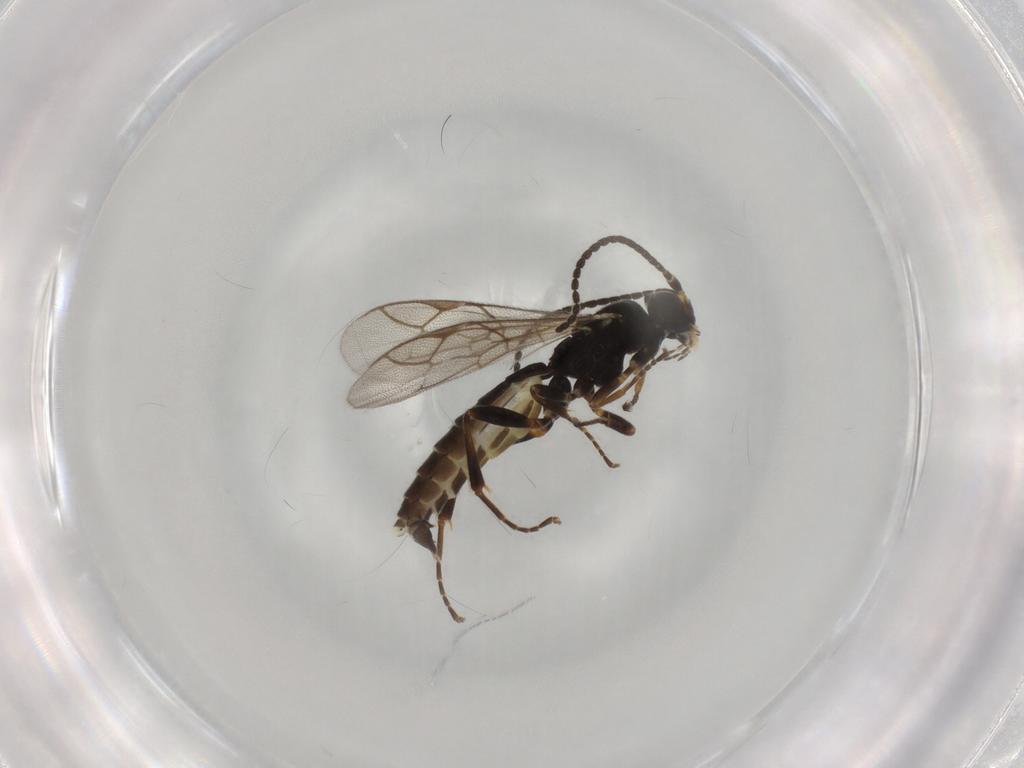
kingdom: Animalia
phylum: Arthropoda
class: Insecta
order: Hymenoptera
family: Ichneumonidae
